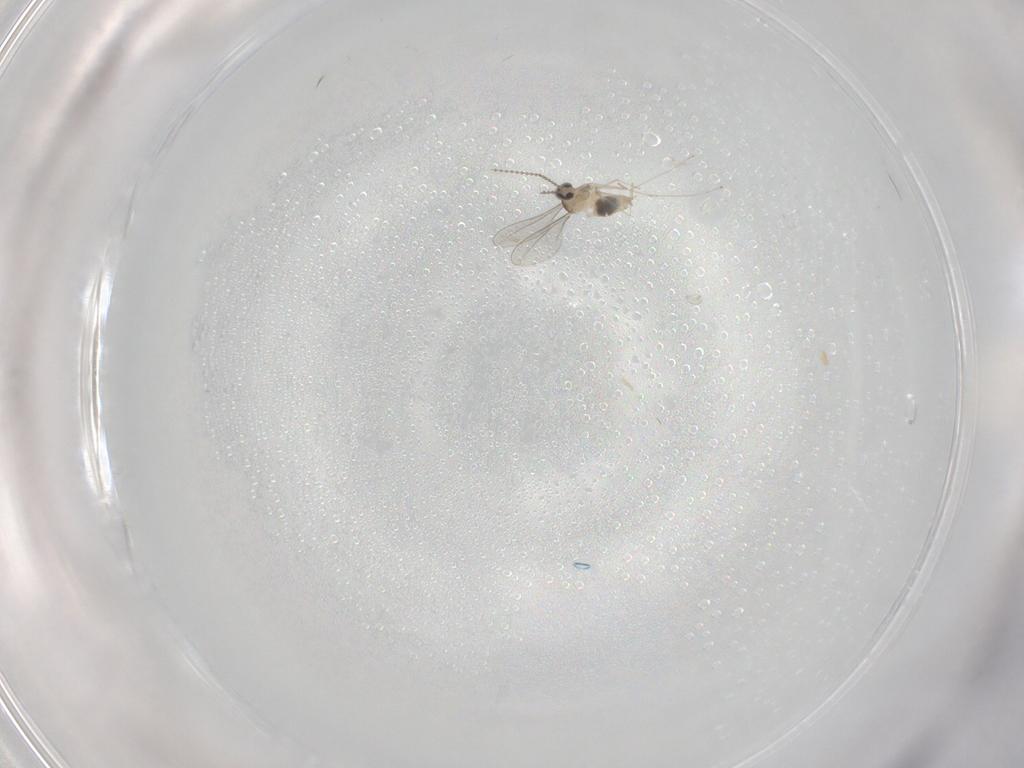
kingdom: Animalia
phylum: Arthropoda
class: Insecta
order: Diptera
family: Cecidomyiidae
